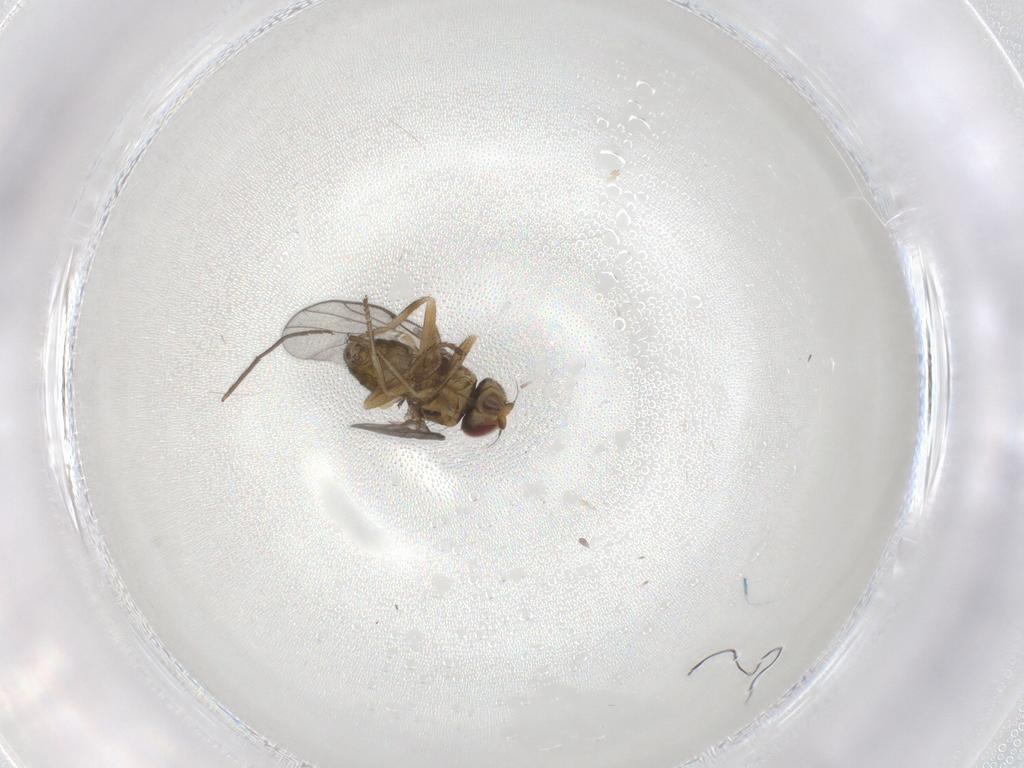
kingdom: Animalia
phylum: Arthropoda
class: Insecta
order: Diptera
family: Chloropidae
